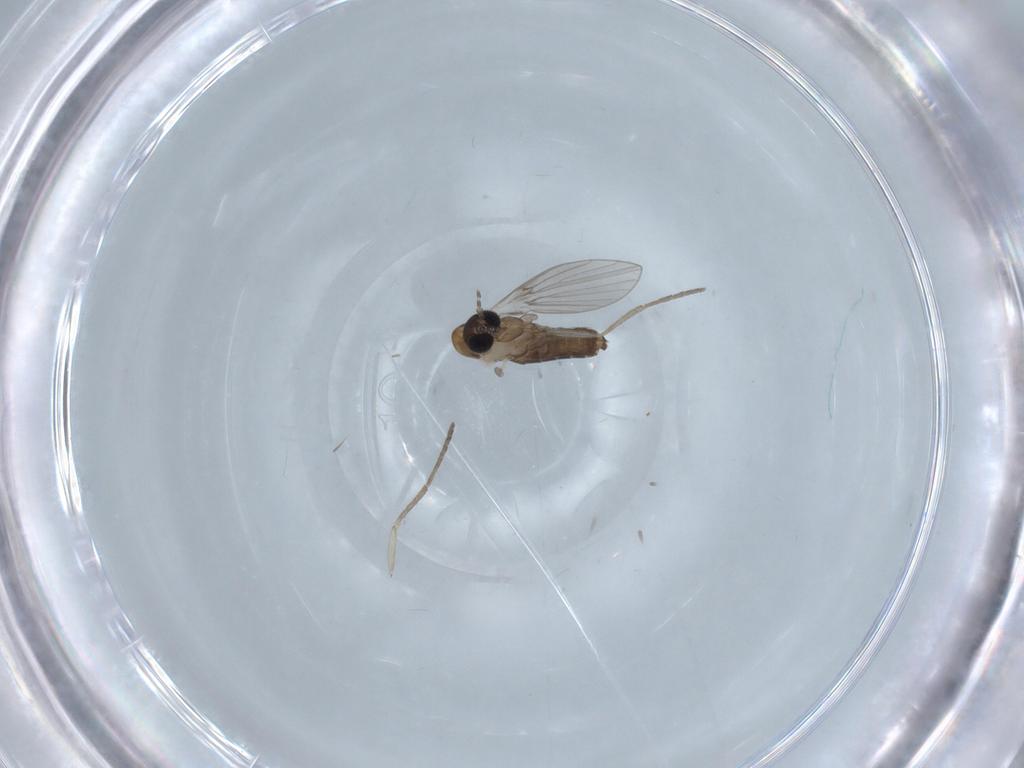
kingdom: Animalia
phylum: Arthropoda
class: Insecta
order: Diptera
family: Psychodidae
